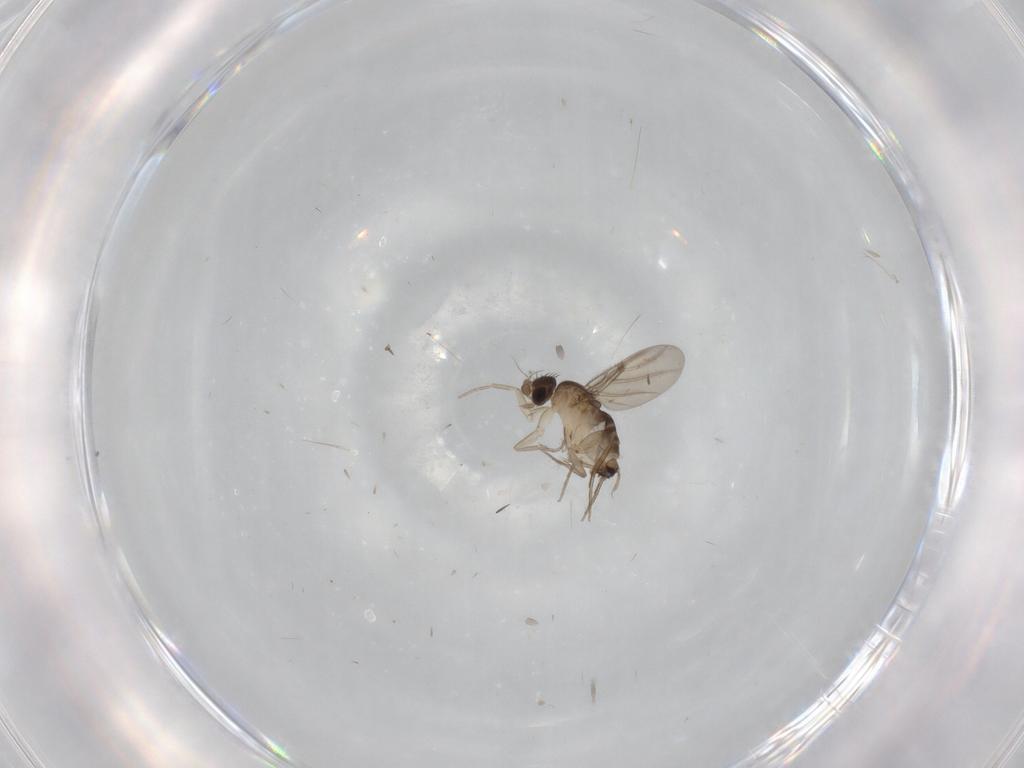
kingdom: Animalia
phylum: Arthropoda
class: Insecta
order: Diptera
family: Phoridae
